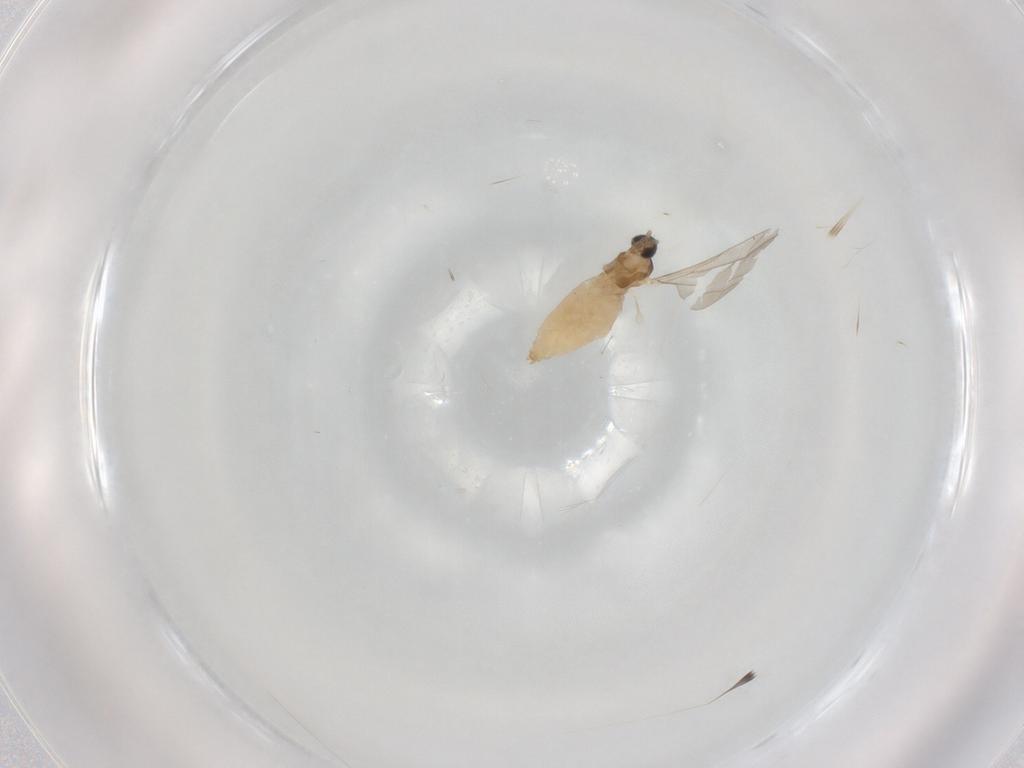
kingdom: Animalia
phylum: Arthropoda
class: Insecta
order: Diptera
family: Cecidomyiidae
